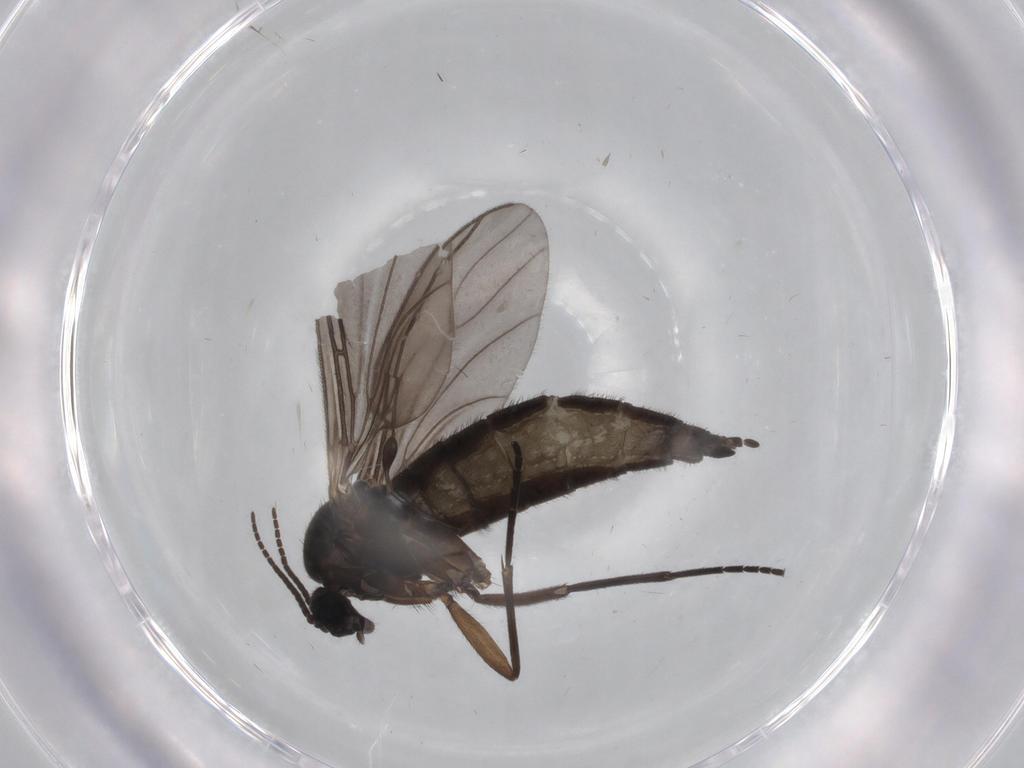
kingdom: Animalia
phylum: Arthropoda
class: Insecta
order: Diptera
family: Sciaridae
